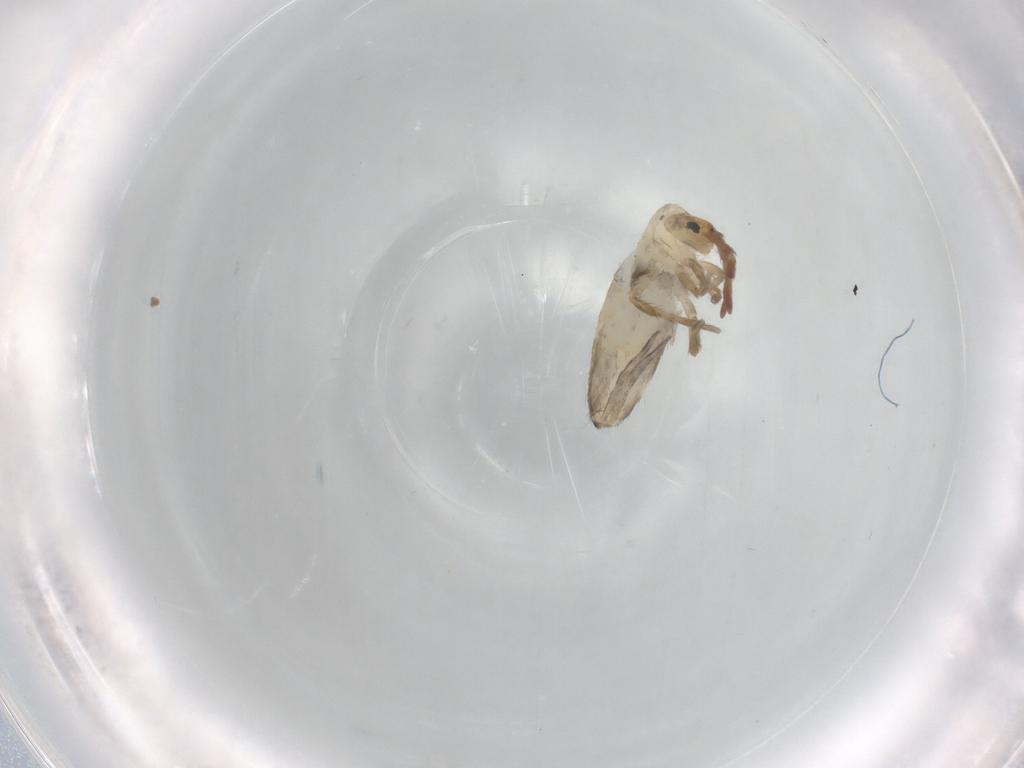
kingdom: Animalia
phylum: Arthropoda
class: Collembola
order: Entomobryomorpha
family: Entomobryidae
